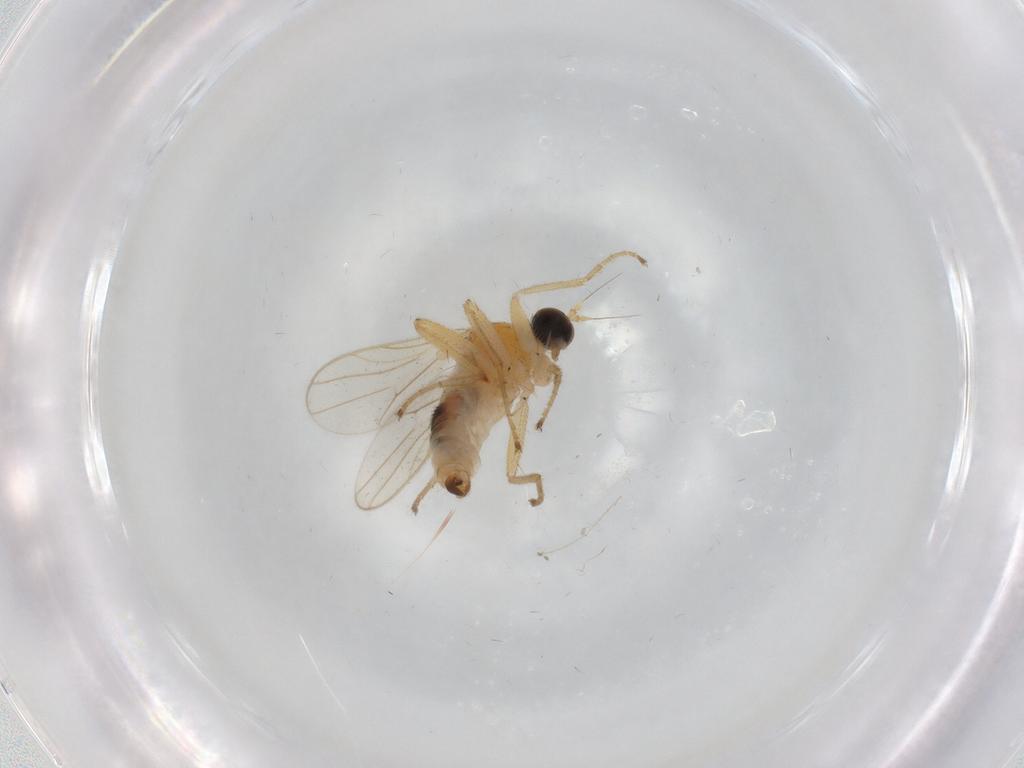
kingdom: Animalia
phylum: Arthropoda
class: Insecta
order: Diptera
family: Hybotidae
